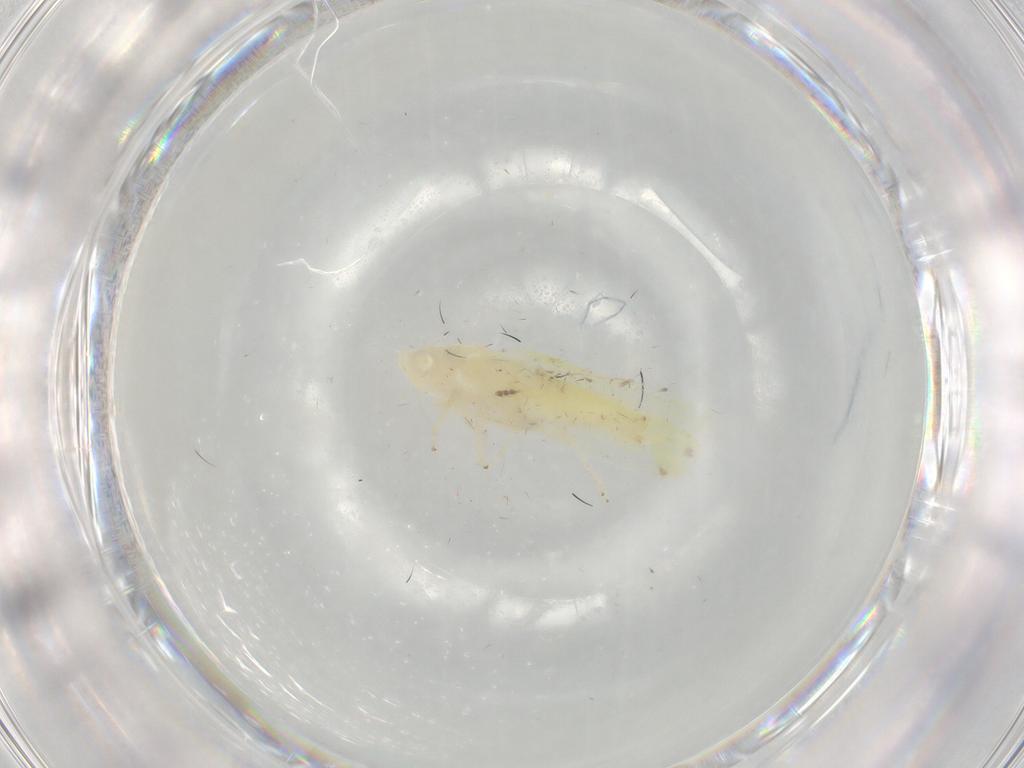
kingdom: Animalia
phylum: Arthropoda
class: Insecta
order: Hemiptera
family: Cicadellidae
